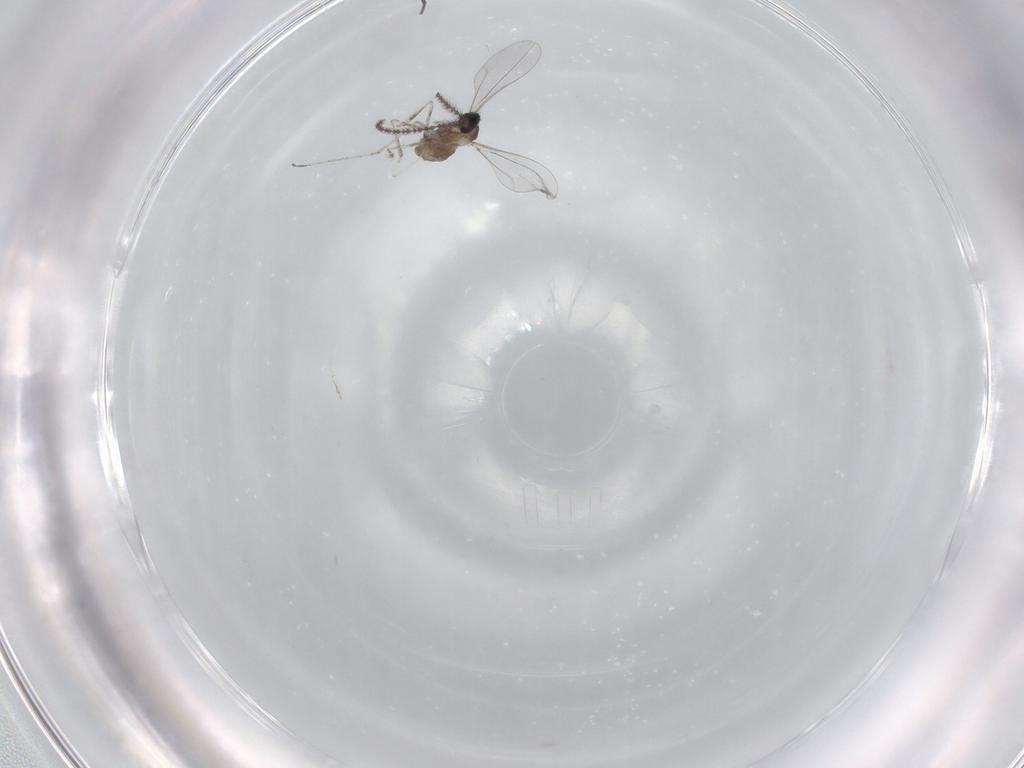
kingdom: Animalia
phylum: Arthropoda
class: Insecta
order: Diptera
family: Cecidomyiidae
